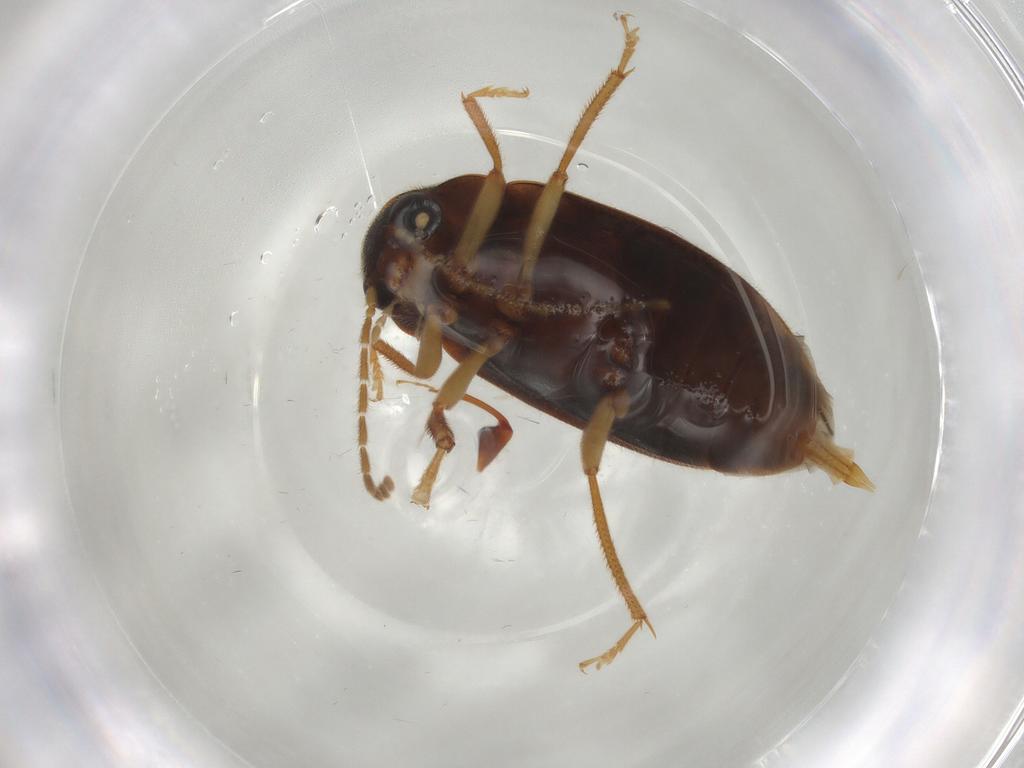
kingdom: Animalia
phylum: Arthropoda
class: Insecta
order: Coleoptera
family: Ptilodactylidae
